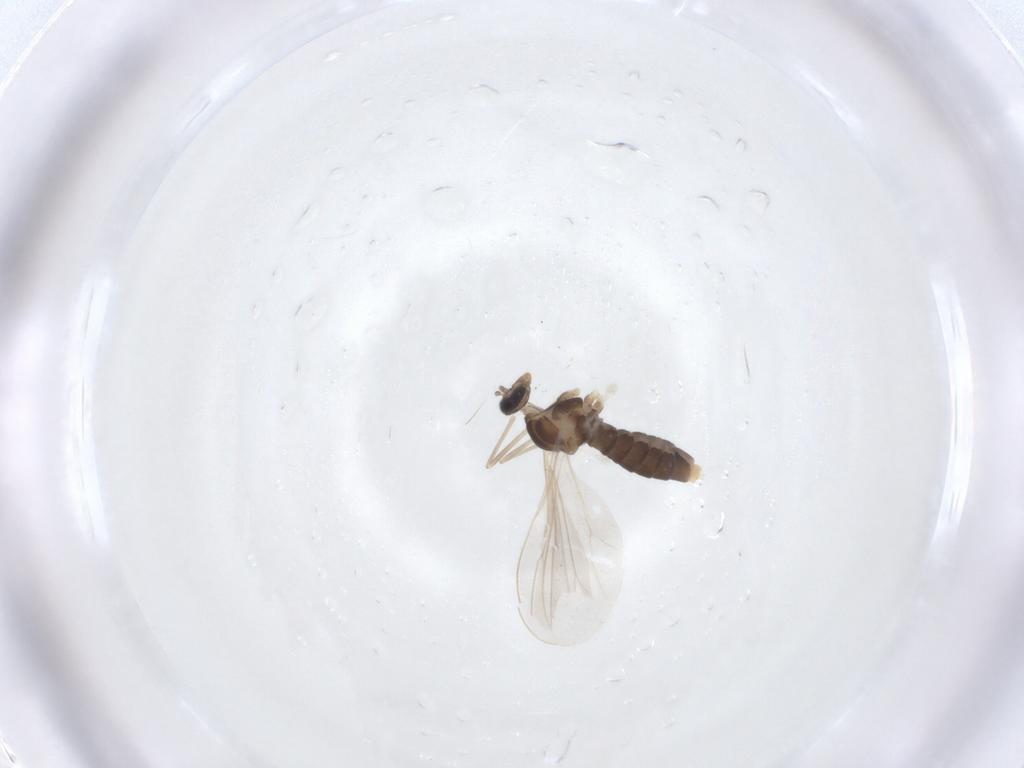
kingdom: Animalia
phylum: Arthropoda
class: Insecta
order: Diptera
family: Cecidomyiidae
